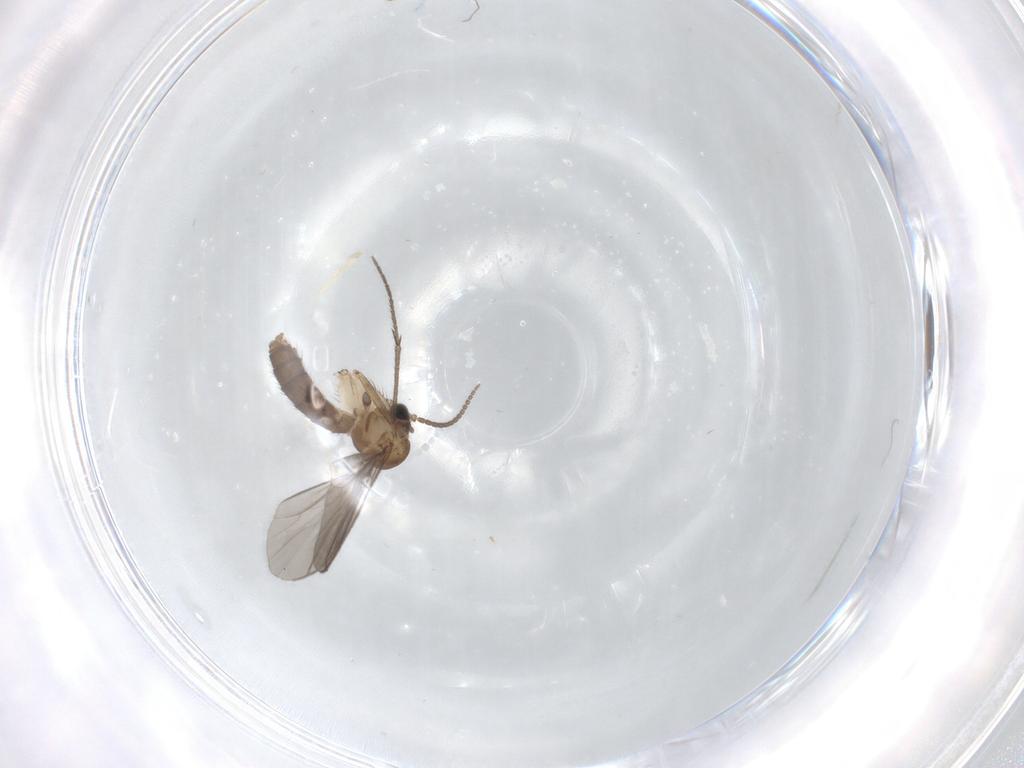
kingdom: Animalia
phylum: Arthropoda
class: Insecta
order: Diptera
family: Mycetophilidae
